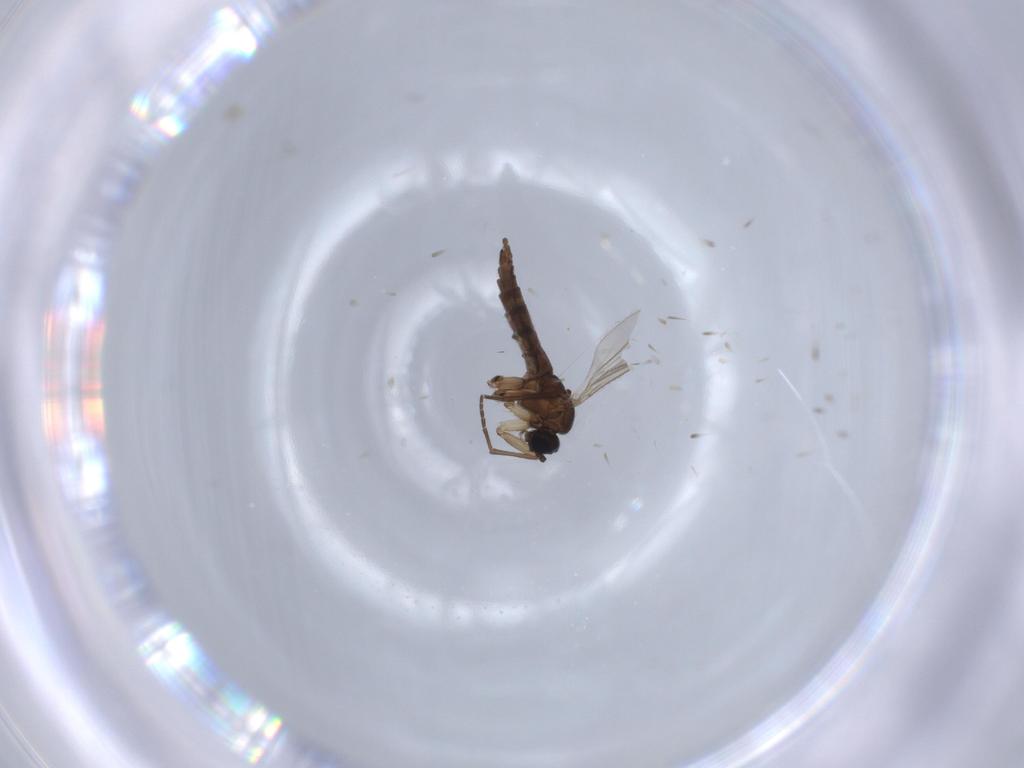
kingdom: Animalia
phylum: Arthropoda
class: Insecta
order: Diptera
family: Sciaridae
